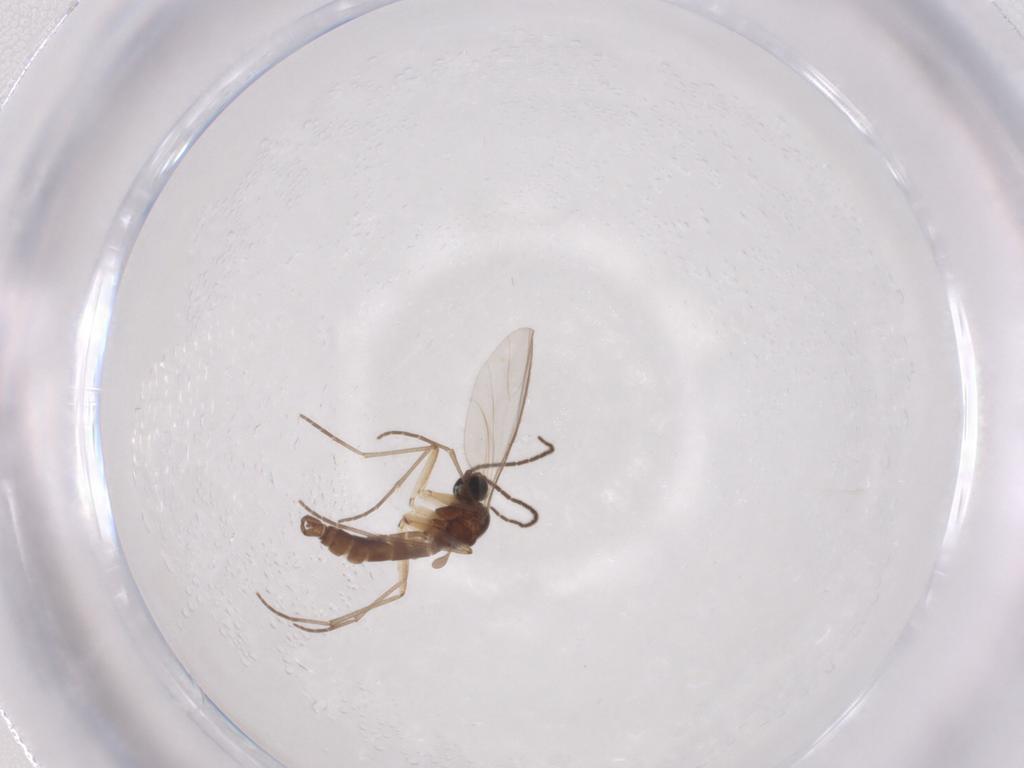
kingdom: Animalia
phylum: Arthropoda
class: Insecta
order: Diptera
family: Sciaridae
